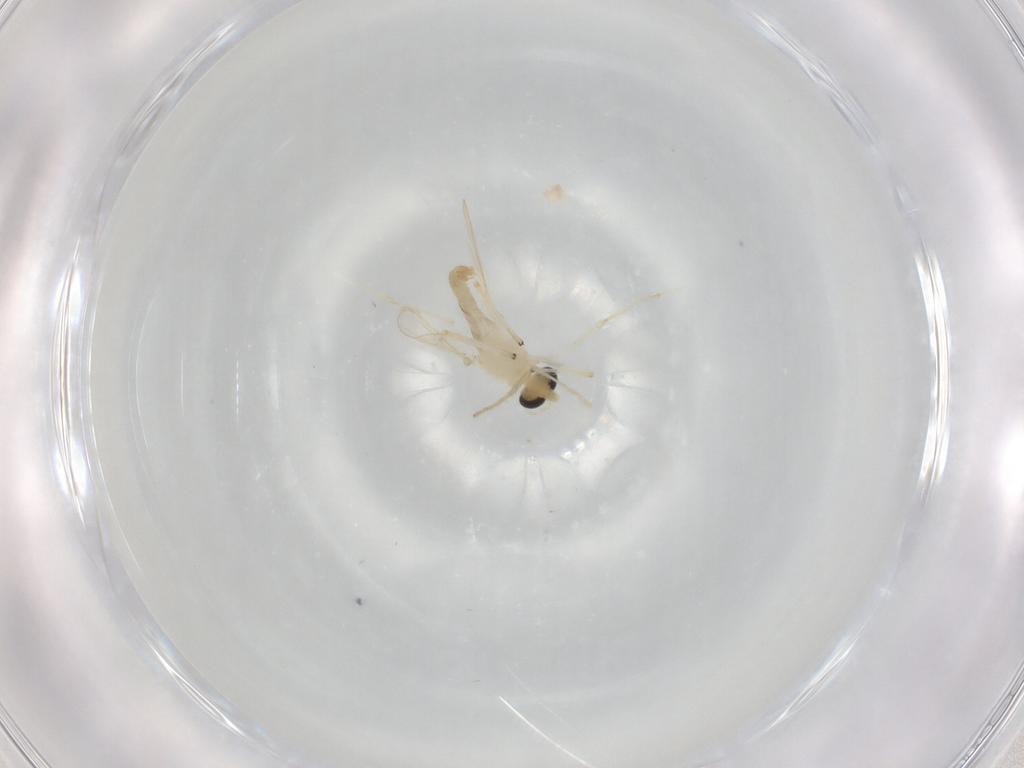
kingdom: Animalia
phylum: Arthropoda
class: Insecta
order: Diptera
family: Chironomidae
